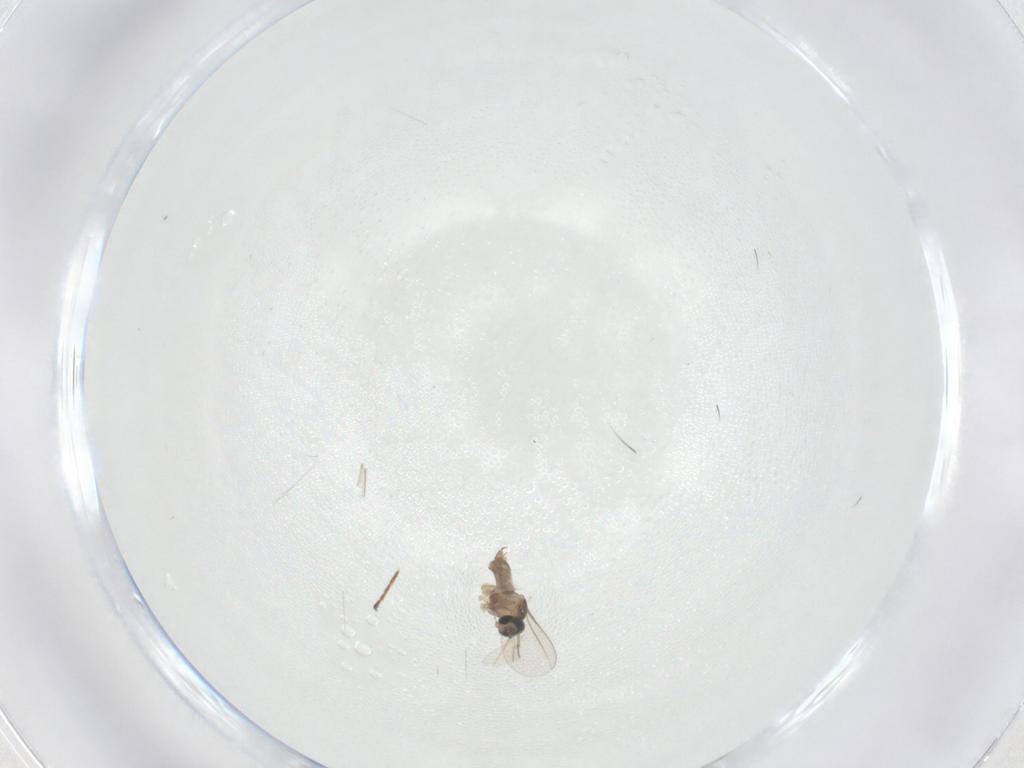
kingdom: Animalia
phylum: Arthropoda
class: Insecta
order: Diptera
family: Cecidomyiidae
